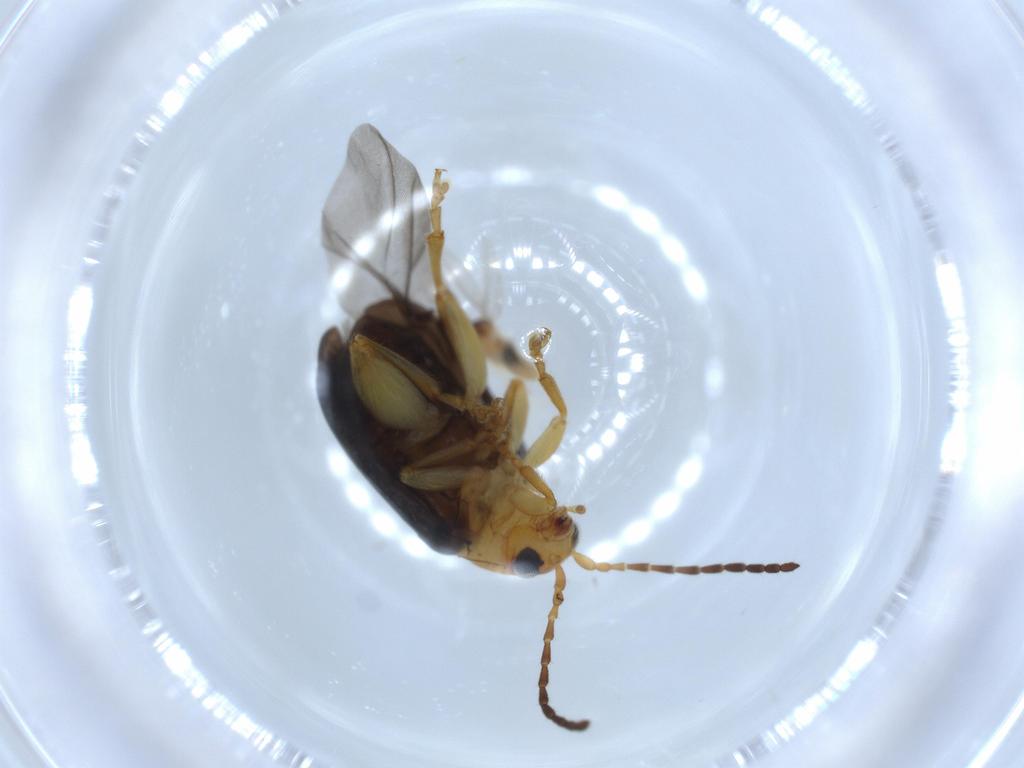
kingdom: Animalia
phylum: Arthropoda
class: Insecta
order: Coleoptera
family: Chrysomelidae
